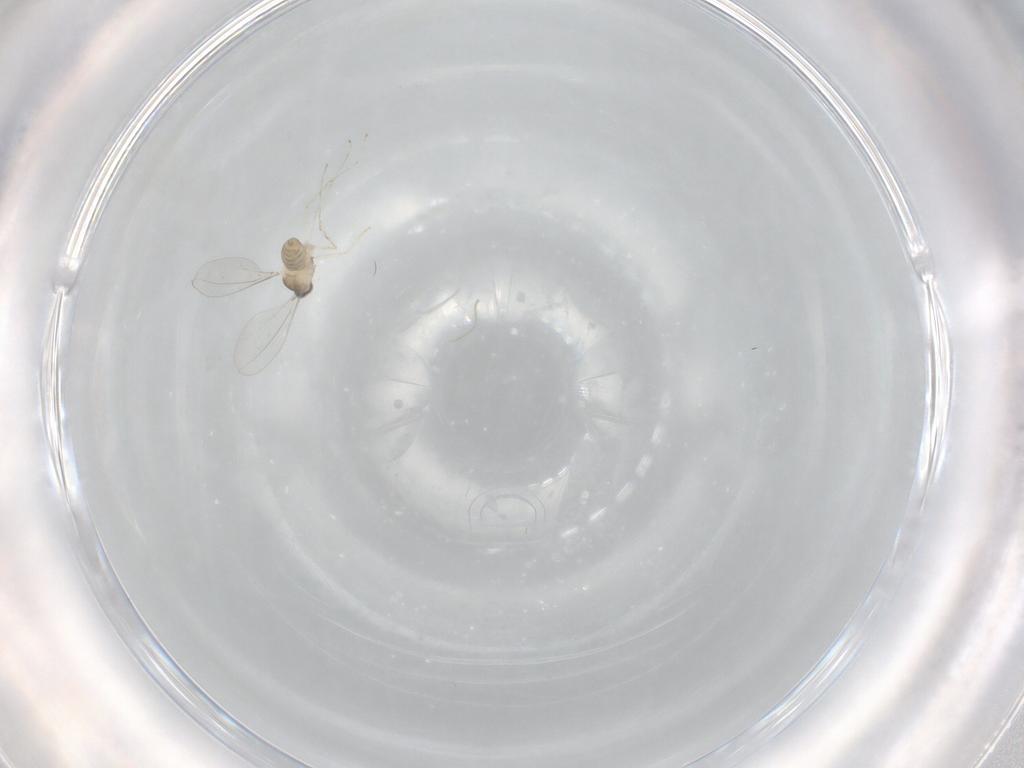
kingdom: Animalia
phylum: Arthropoda
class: Insecta
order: Diptera
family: Cecidomyiidae
